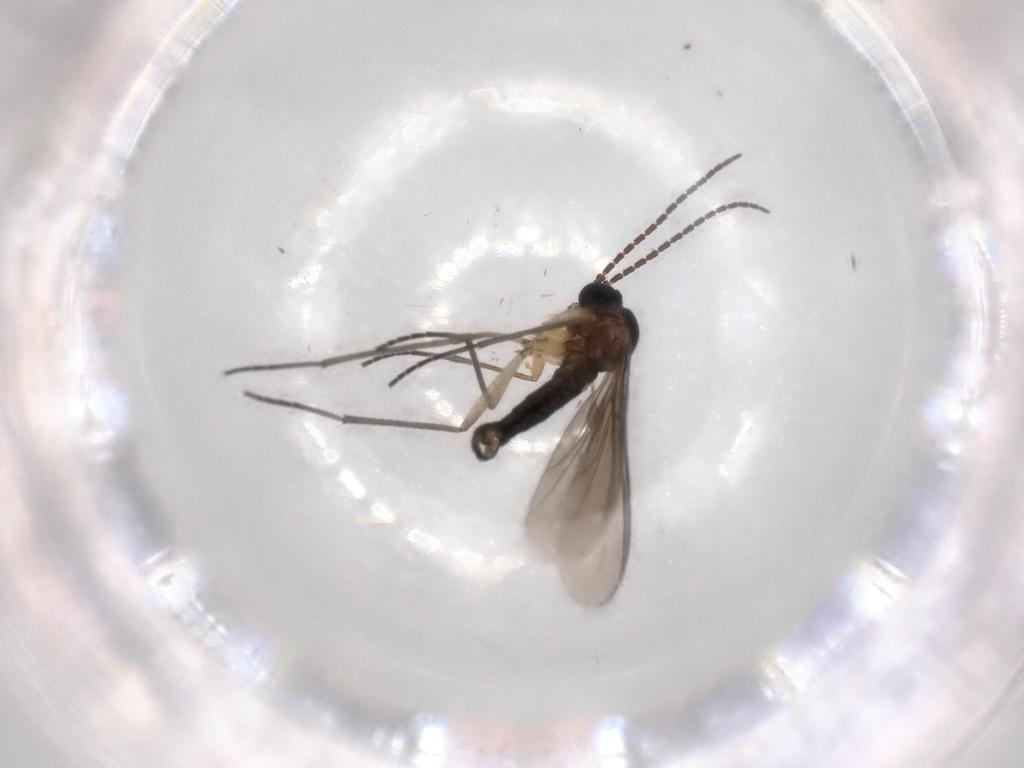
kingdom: Animalia
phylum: Arthropoda
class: Insecta
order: Diptera
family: Sciaridae
